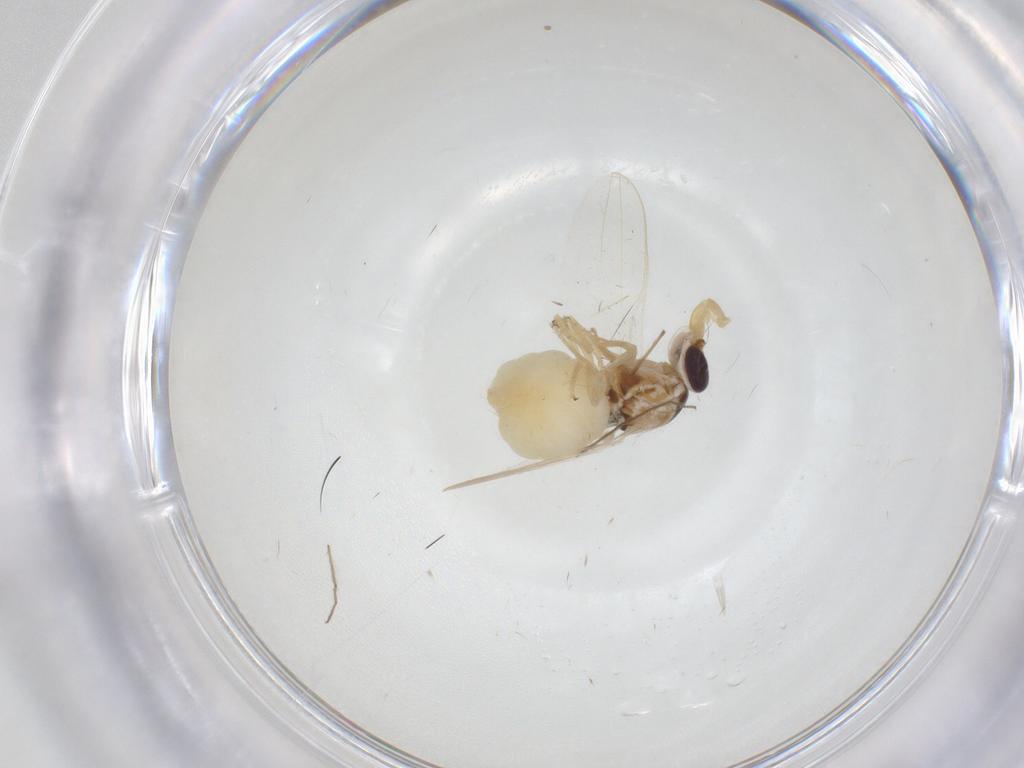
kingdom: Animalia
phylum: Arthropoda
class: Insecta
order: Diptera
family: Chloropidae
